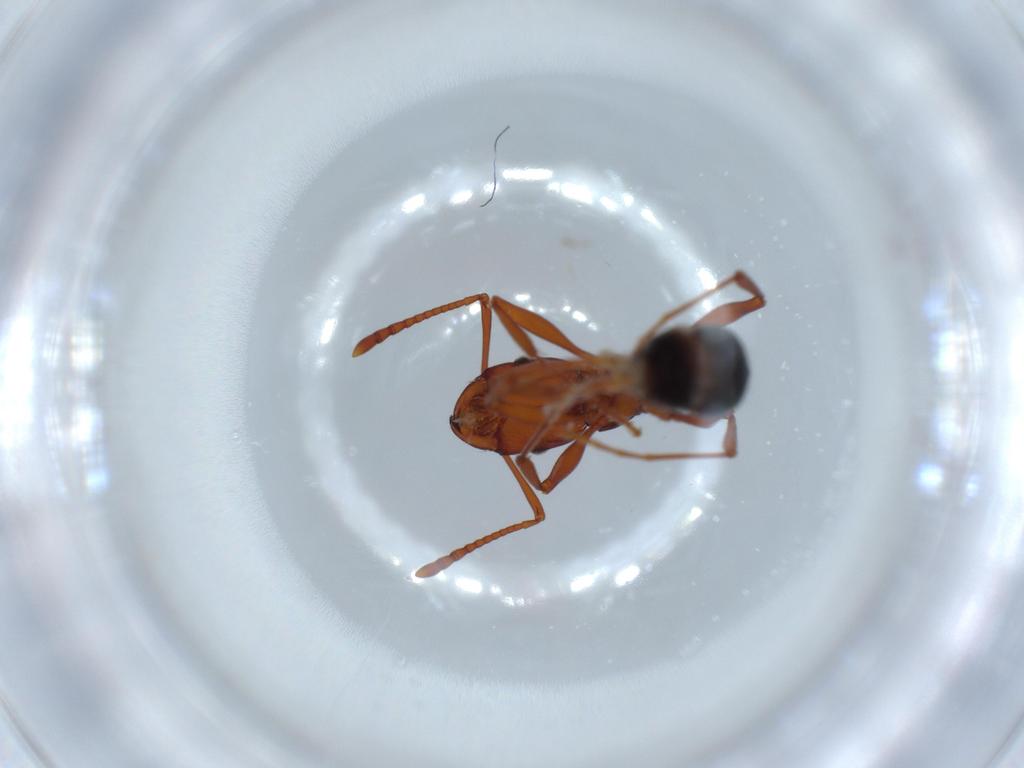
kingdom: Animalia
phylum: Arthropoda
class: Insecta
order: Hymenoptera
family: Formicidae
